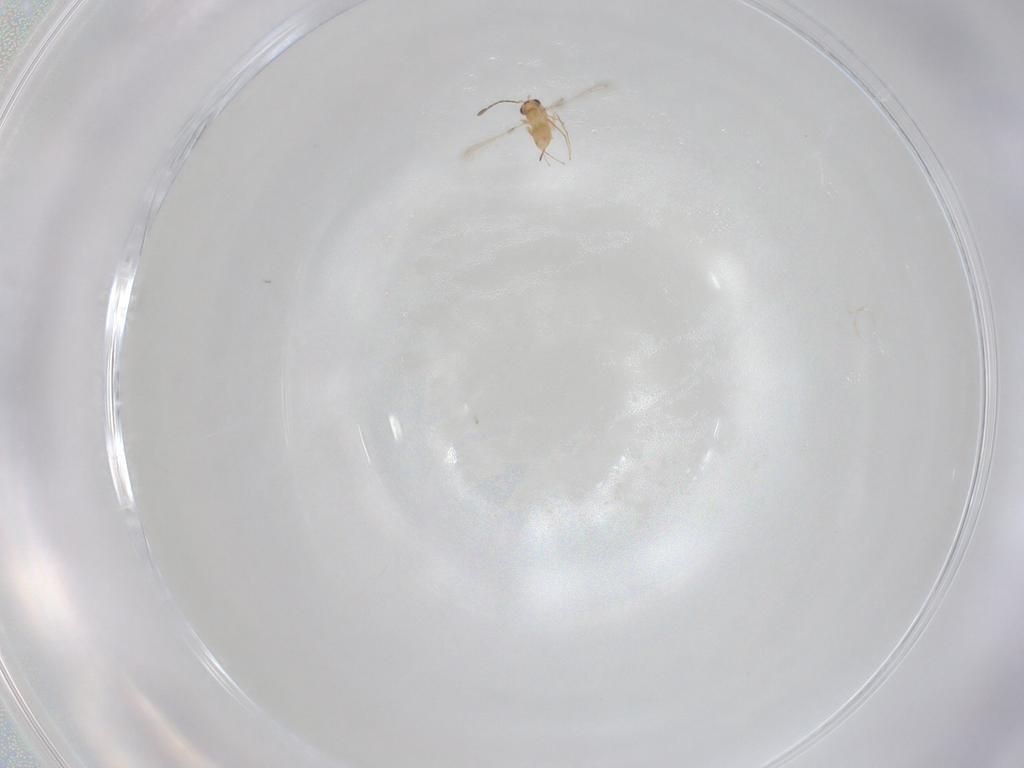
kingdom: Animalia
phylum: Arthropoda
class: Insecta
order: Hymenoptera
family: Mymaridae
